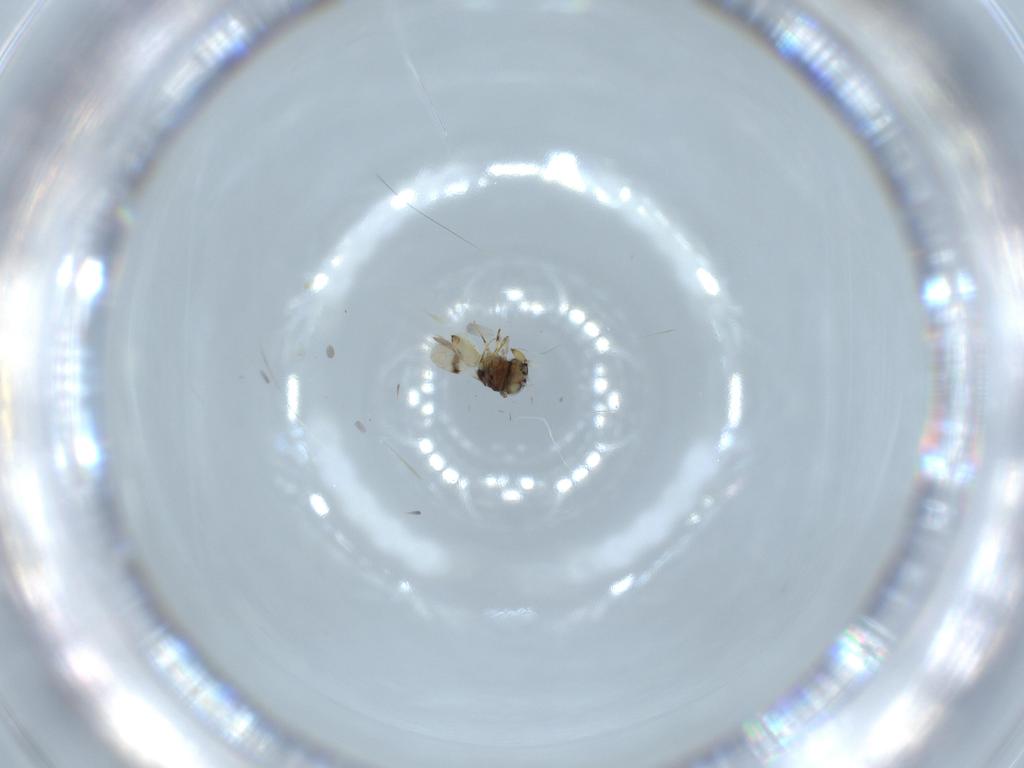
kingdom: Animalia
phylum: Arthropoda
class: Insecta
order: Hymenoptera
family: Scelionidae
